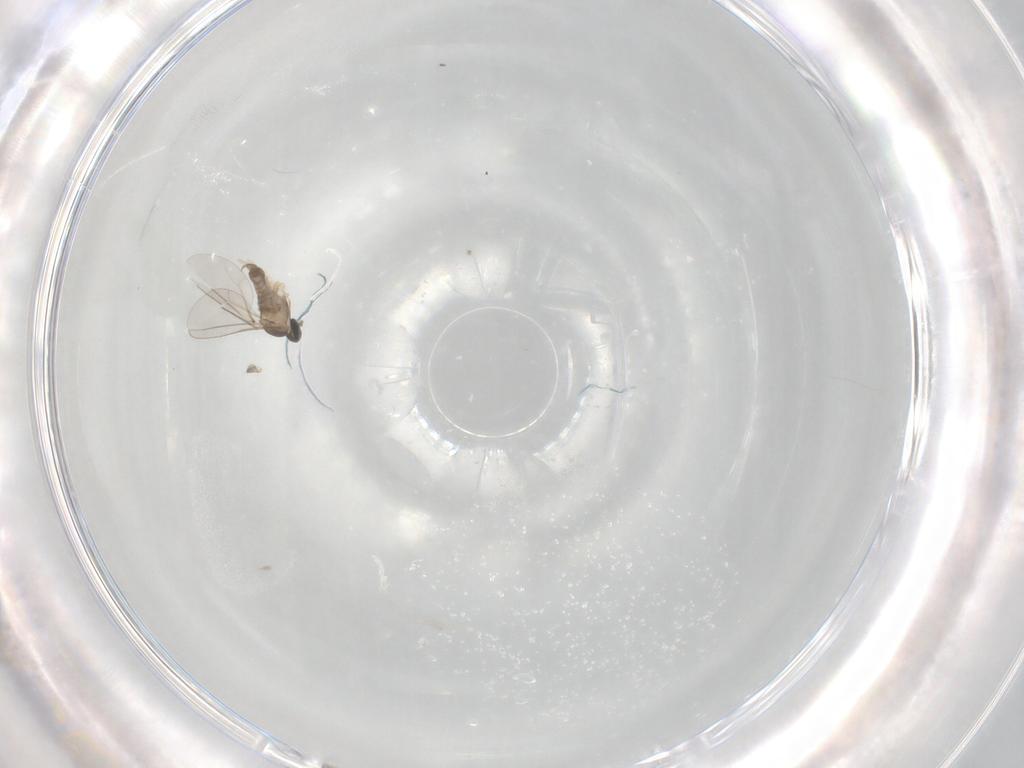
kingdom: Animalia
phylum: Arthropoda
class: Insecta
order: Diptera
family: Cecidomyiidae
